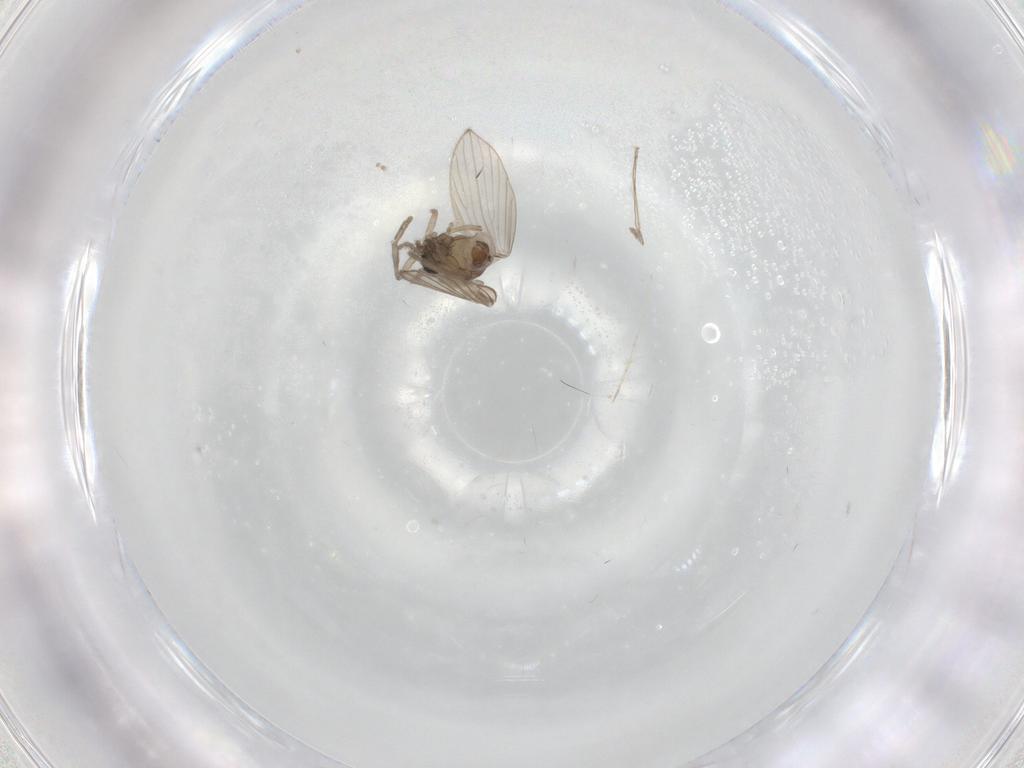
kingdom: Animalia
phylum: Arthropoda
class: Insecta
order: Diptera
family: Psychodidae
